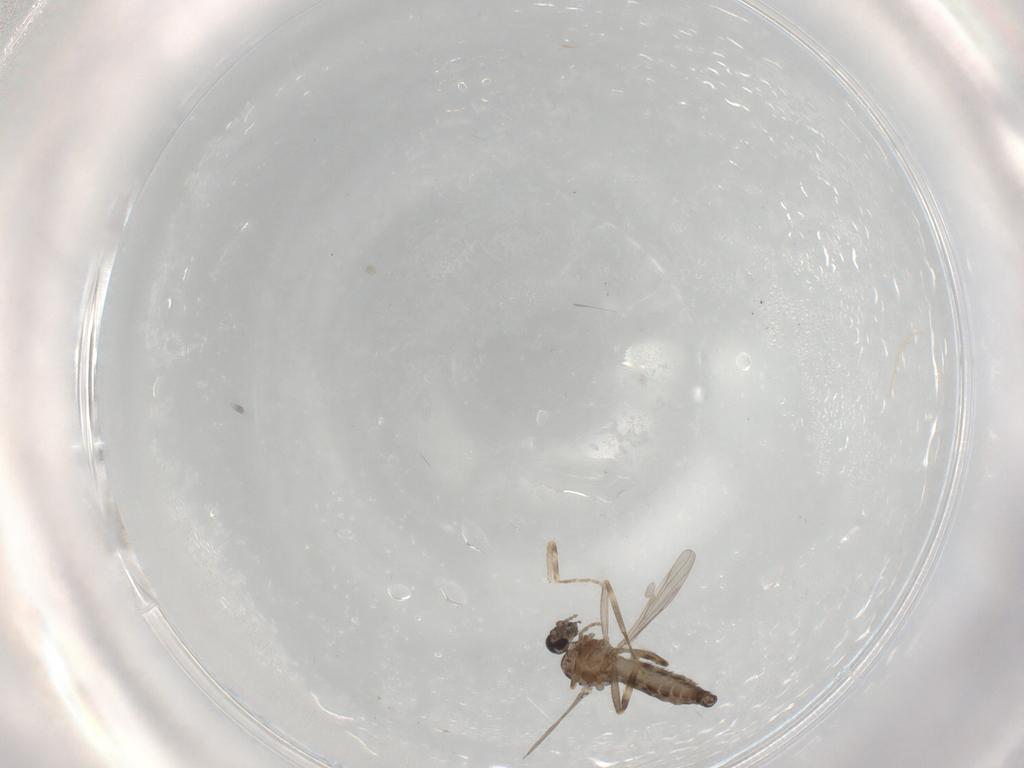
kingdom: Animalia
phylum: Arthropoda
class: Insecta
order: Diptera
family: Ceratopogonidae
